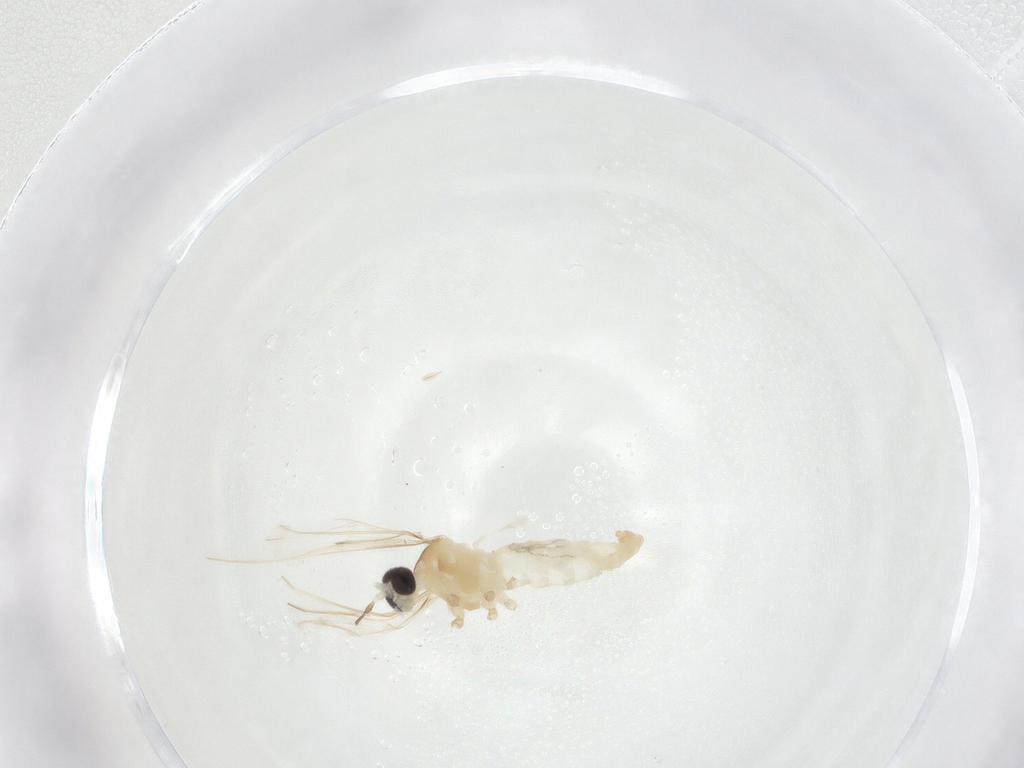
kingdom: Animalia
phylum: Arthropoda
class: Insecta
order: Diptera
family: Cecidomyiidae
